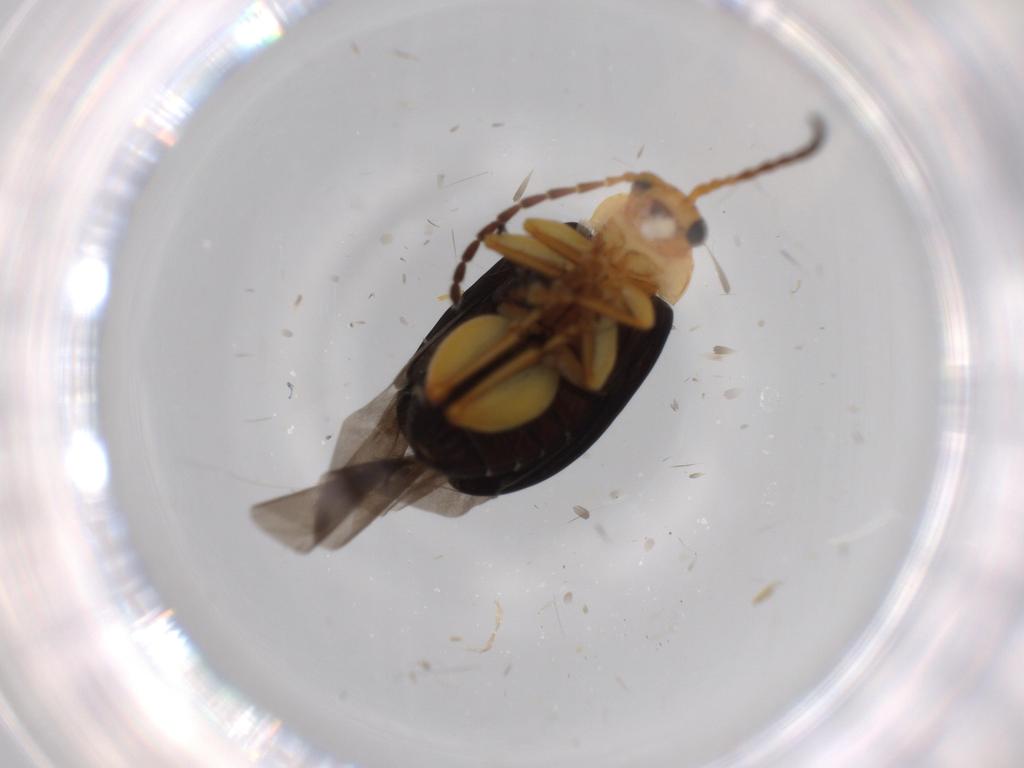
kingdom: Animalia
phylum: Arthropoda
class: Insecta
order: Coleoptera
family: Chrysomelidae
